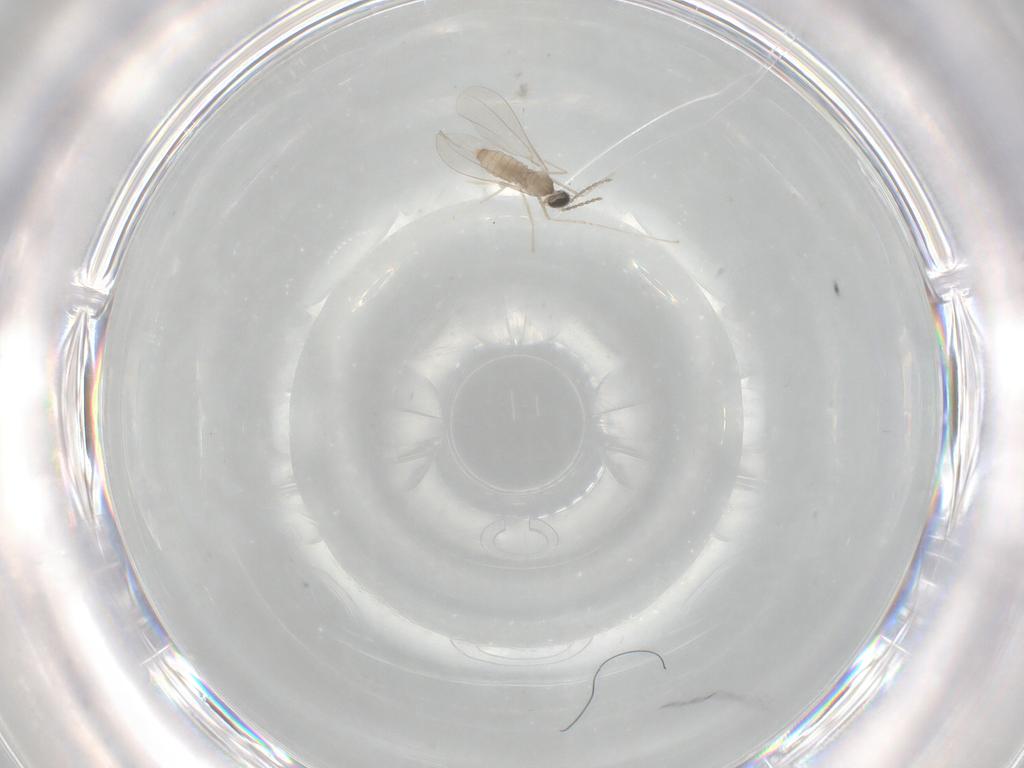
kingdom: Animalia
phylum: Arthropoda
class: Insecta
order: Diptera
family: Cecidomyiidae
